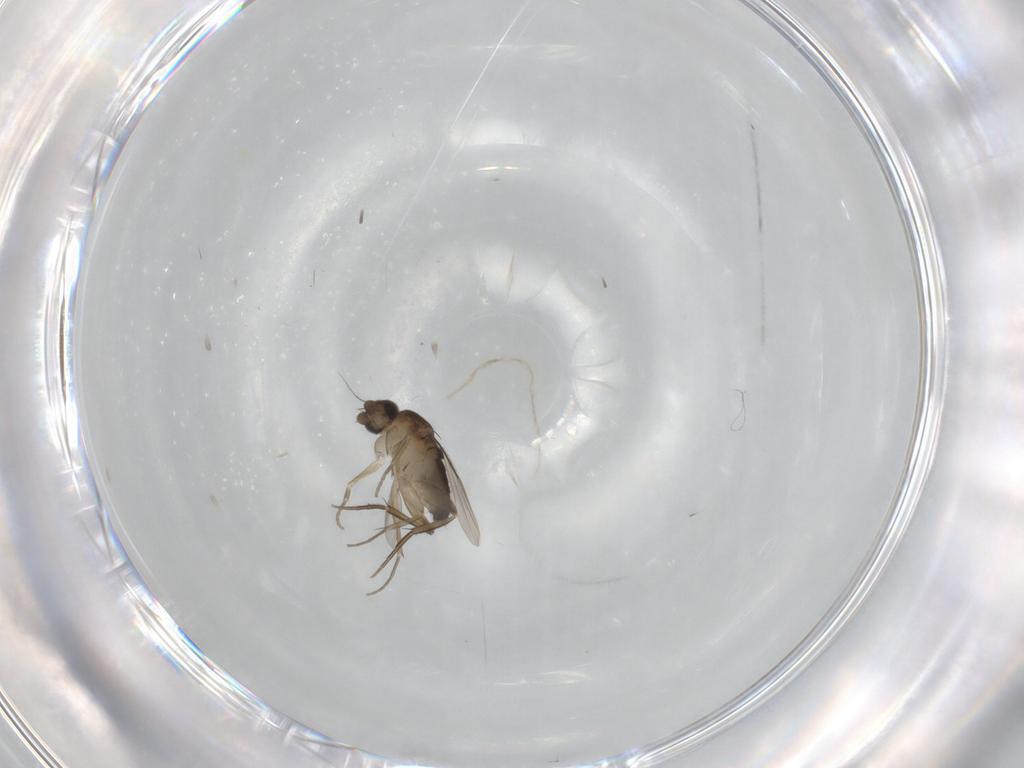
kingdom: Animalia
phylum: Arthropoda
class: Insecta
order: Diptera
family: Phoridae
